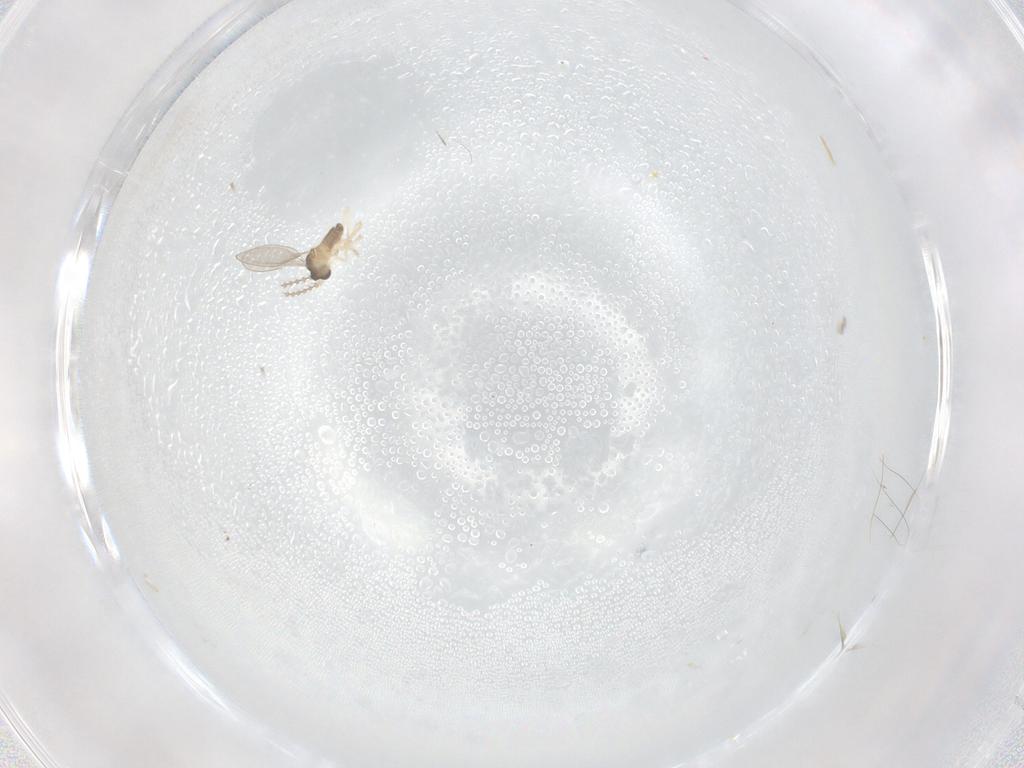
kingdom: Animalia
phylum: Arthropoda
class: Insecta
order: Diptera
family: Cecidomyiidae
